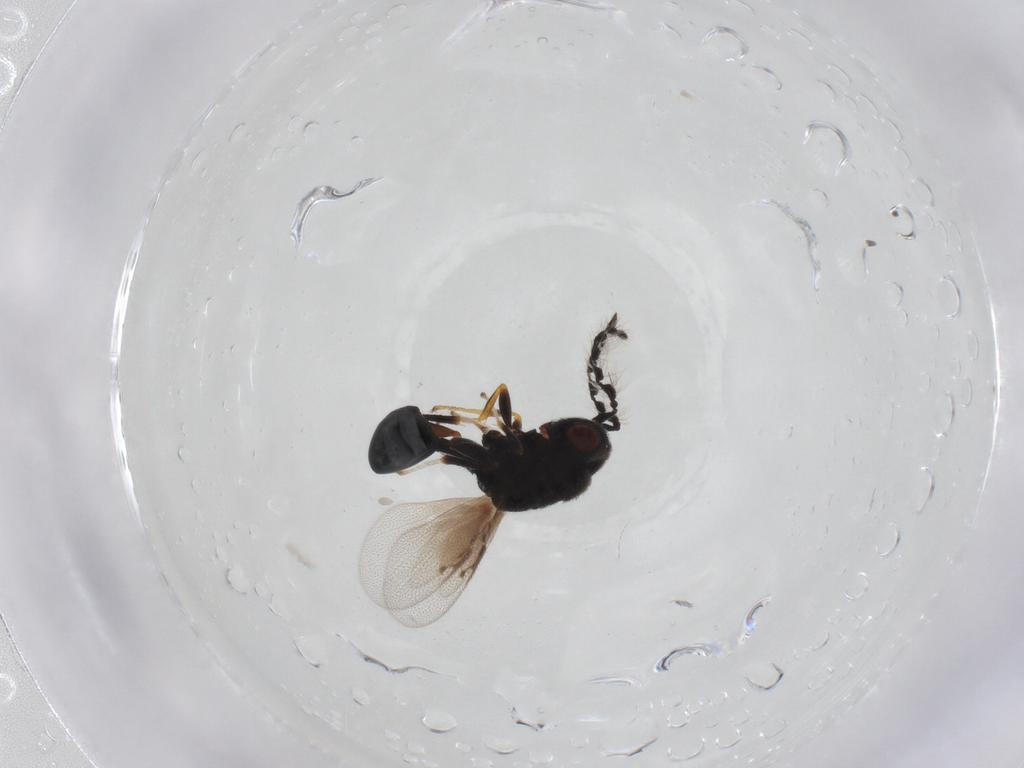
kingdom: Animalia
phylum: Arthropoda
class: Insecta
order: Hymenoptera
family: Eurytomidae
